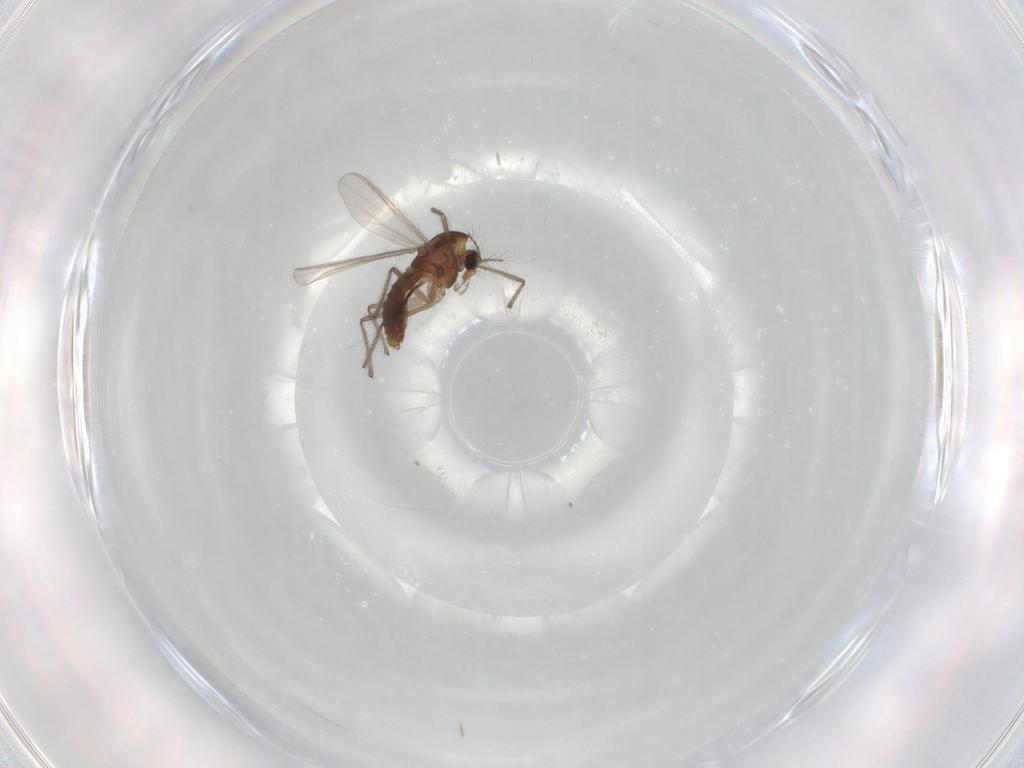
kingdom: Animalia
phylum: Arthropoda
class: Insecta
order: Diptera
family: Chironomidae
